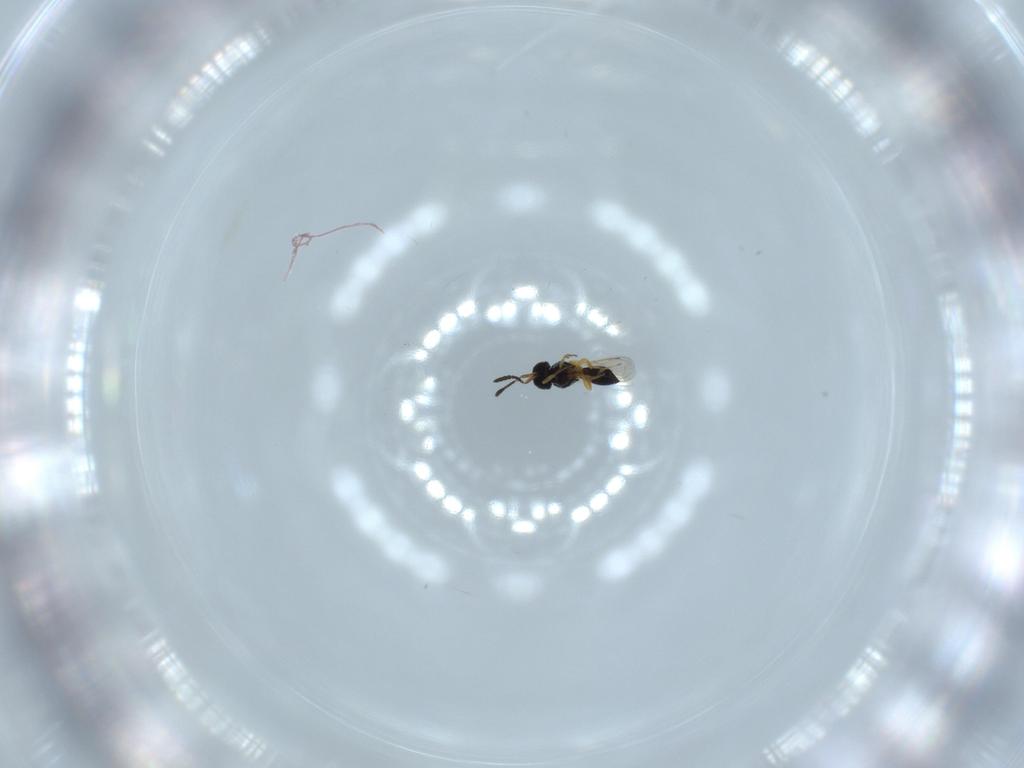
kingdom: Animalia
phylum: Arthropoda
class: Insecta
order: Hymenoptera
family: Scelionidae
